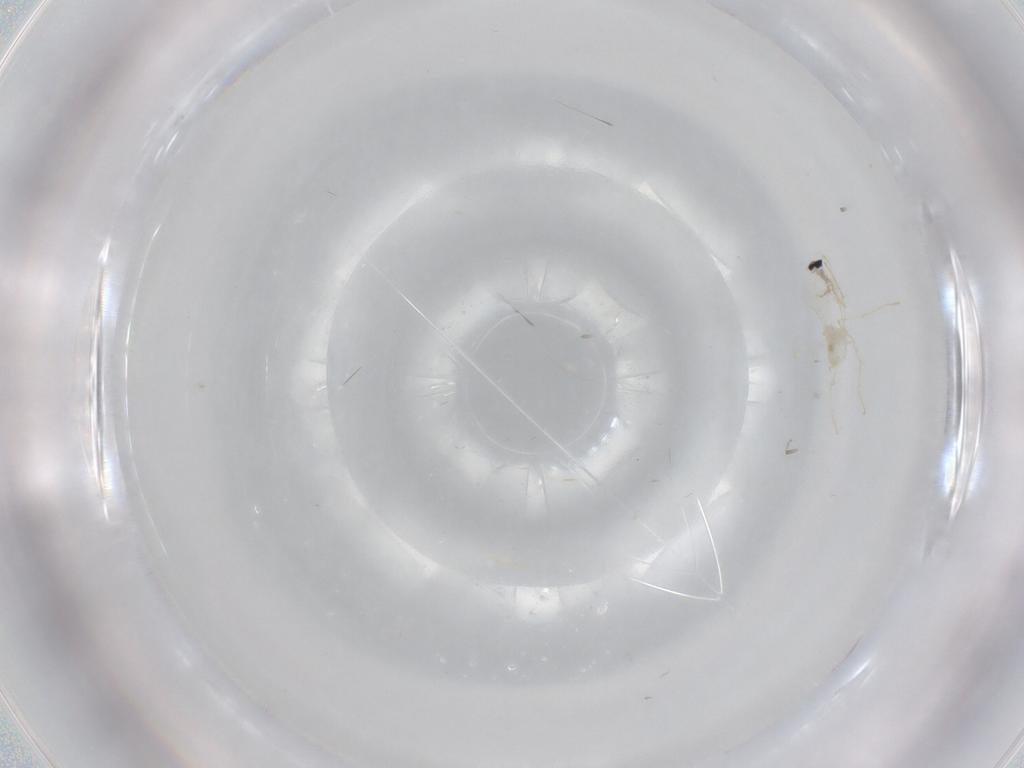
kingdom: Animalia
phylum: Arthropoda
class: Insecta
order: Diptera
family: Cecidomyiidae
